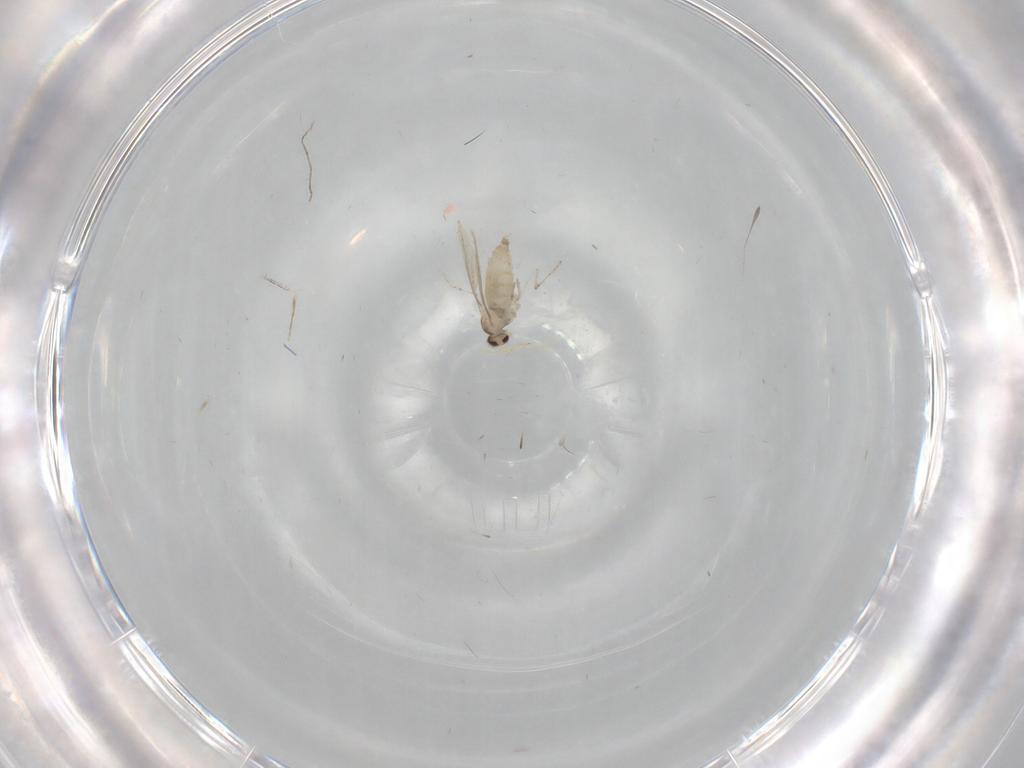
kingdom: Animalia
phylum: Arthropoda
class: Insecta
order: Diptera
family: Cecidomyiidae
